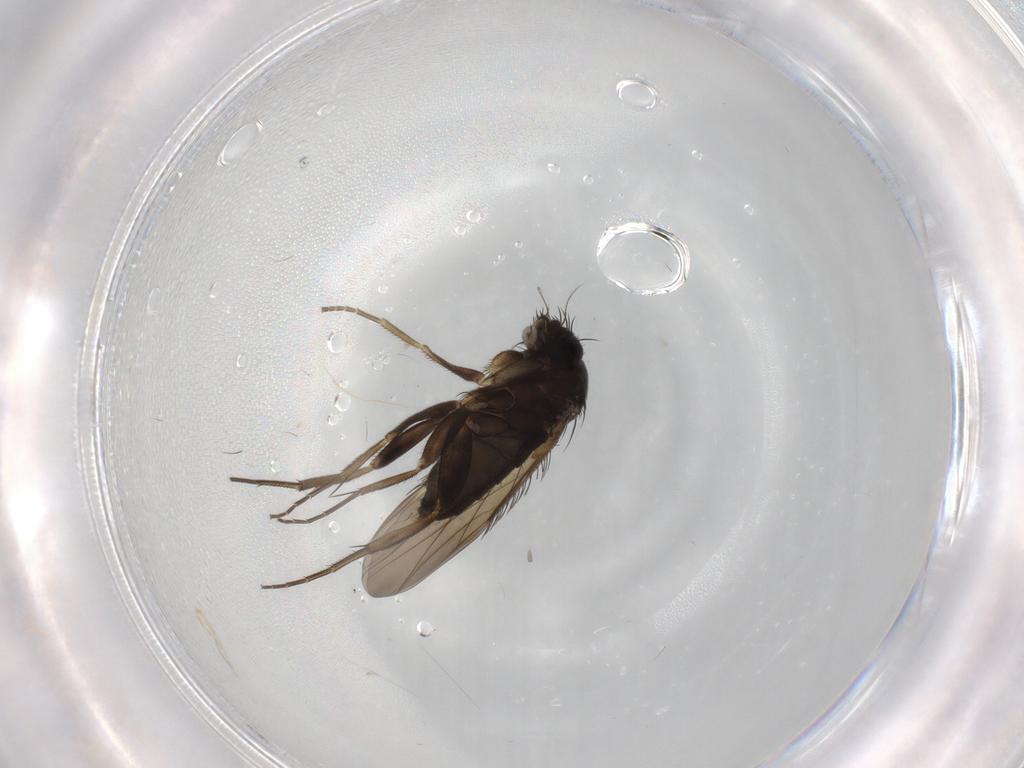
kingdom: Animalia
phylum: Arthropoda
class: Insecta
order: Diptera
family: Phoridae
